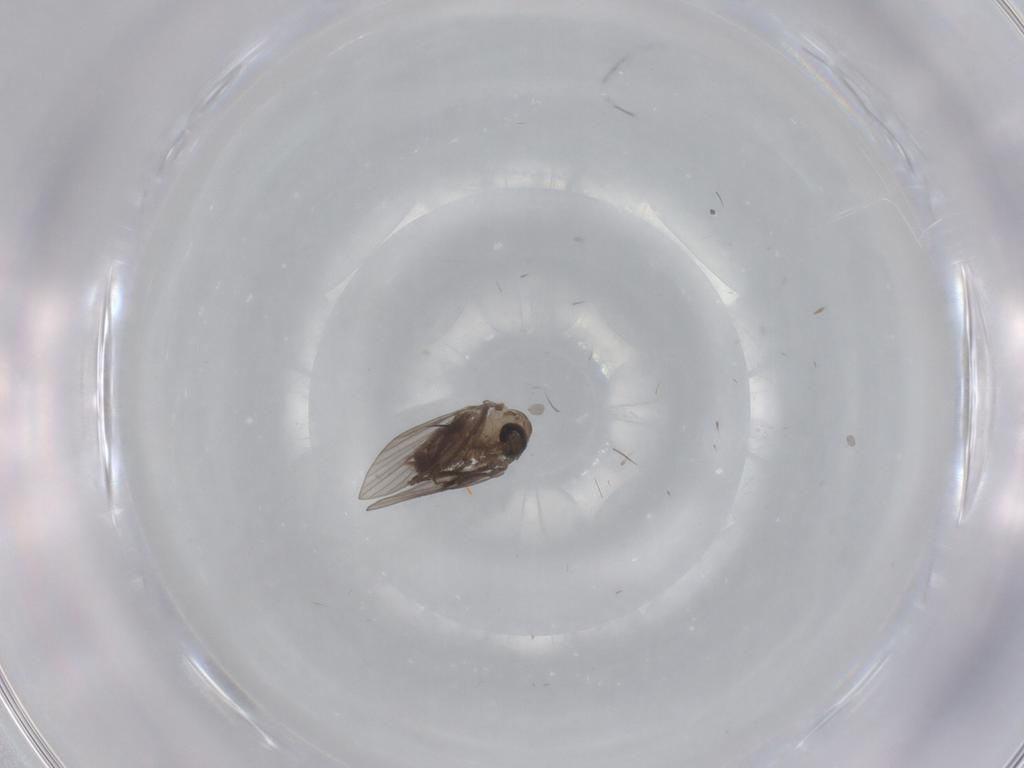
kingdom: Animalia
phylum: Arthropoda
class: Insecta
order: Diptera
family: Psychodidae
